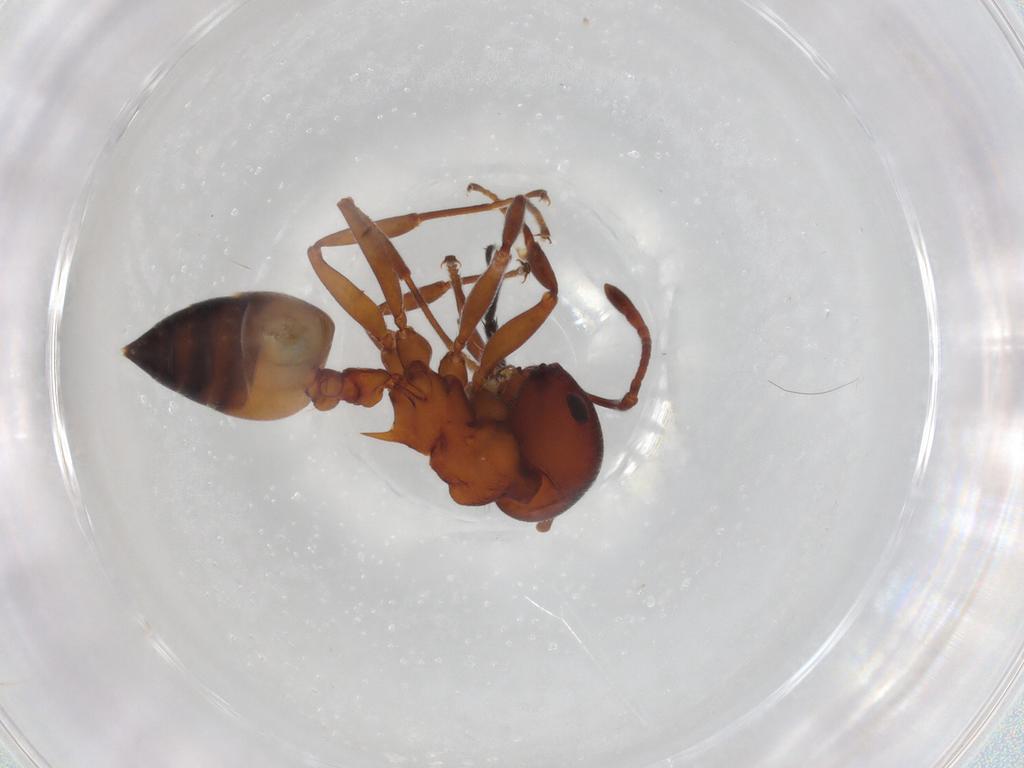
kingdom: Animalia
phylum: Arthropoda
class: Insecta
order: Hymenoptera
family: Formicidae
